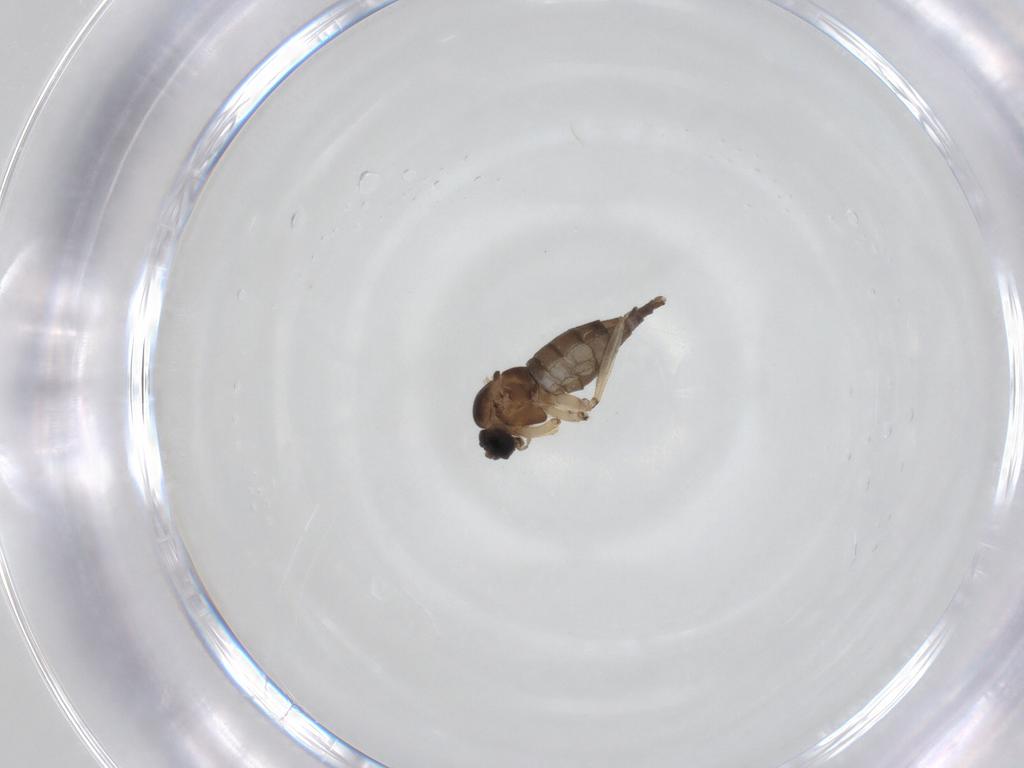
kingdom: Animalia
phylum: Arthropoda
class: Insecta
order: Diptera
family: Sciaridae
